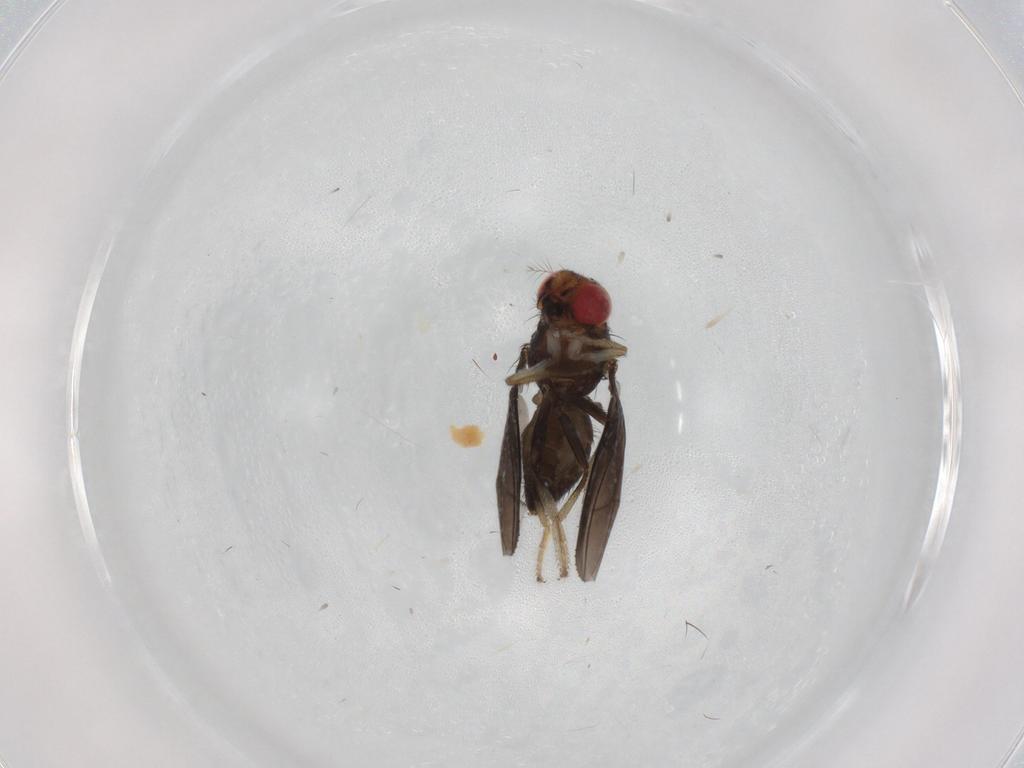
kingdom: Animalia
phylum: Arthropoda
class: Insecta
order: Diptera
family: Drosophilidae
